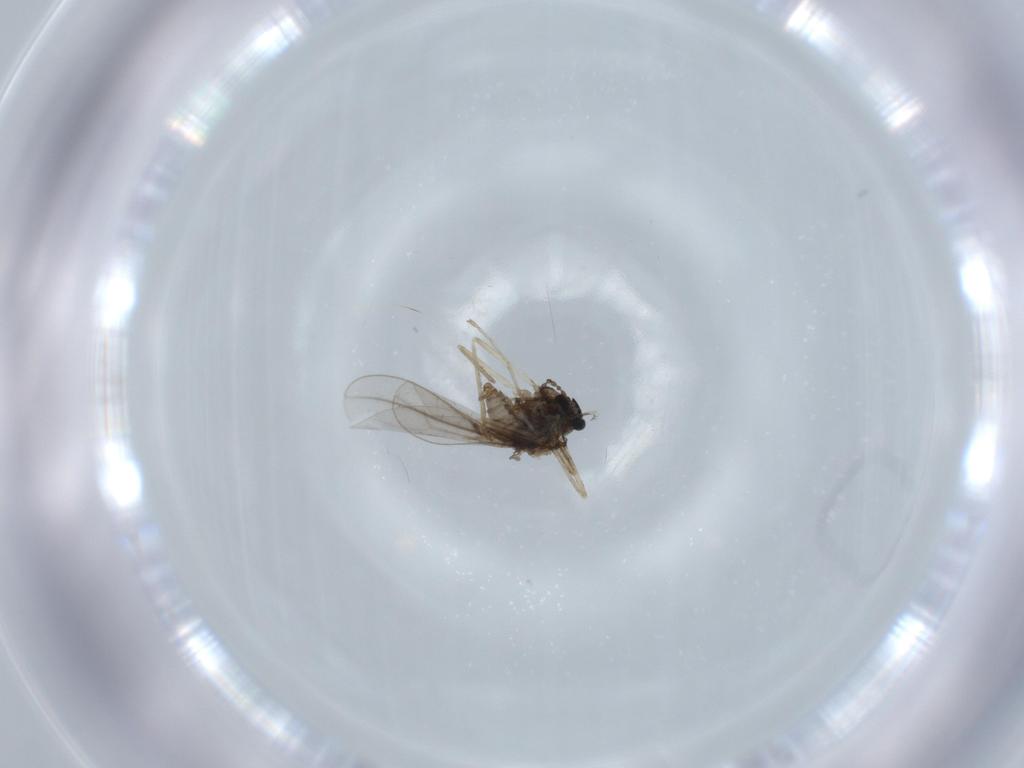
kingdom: Animalia
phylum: Arthropoda
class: Insecta
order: Diptera
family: Cecidomyiidae
